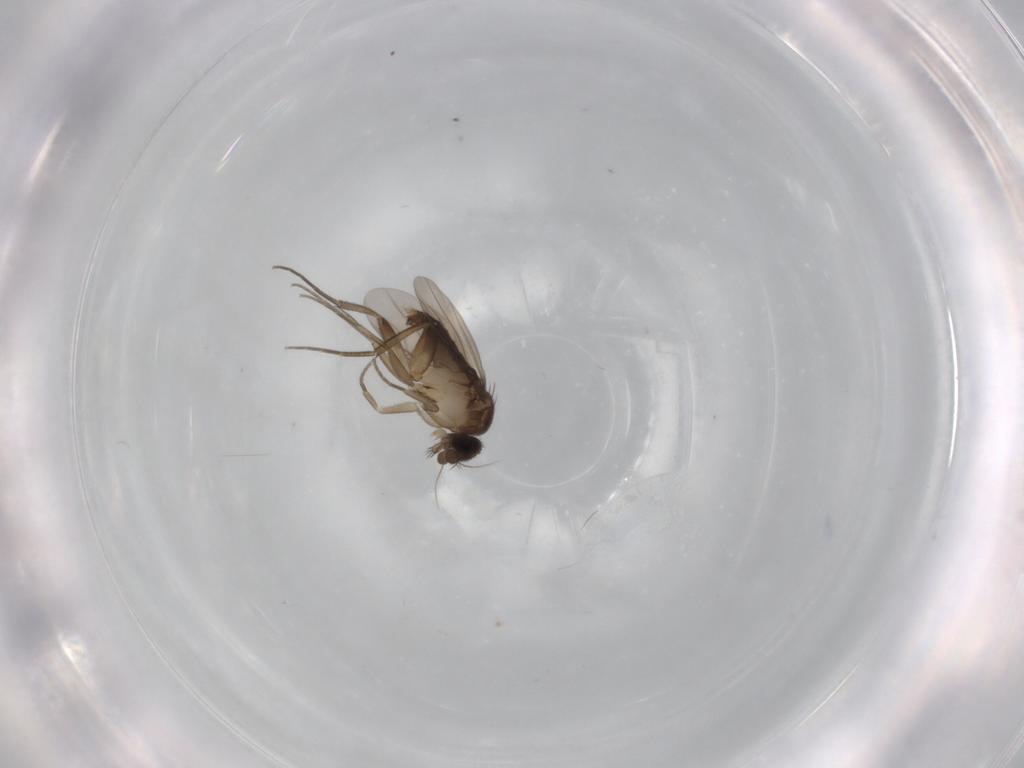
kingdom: Animalia
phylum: Arthropoda
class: Insecta
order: Diptera
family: Phoridae
